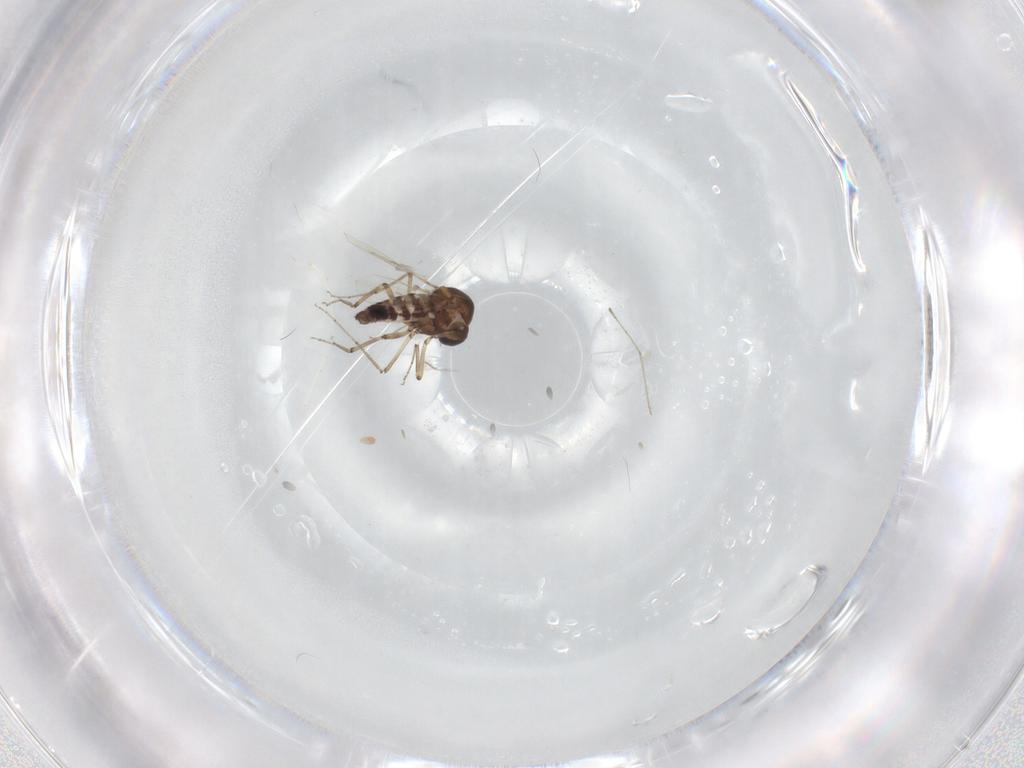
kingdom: Animalia
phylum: Arthropoda
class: Insecta
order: Diptera
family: Ceratopogonidae
